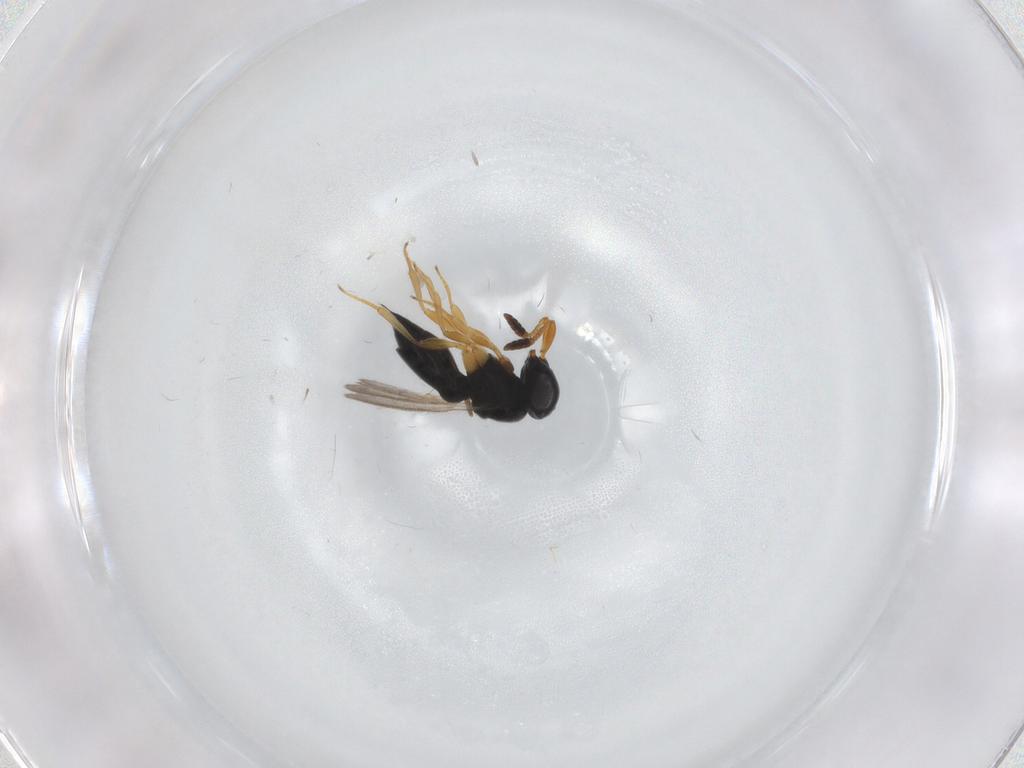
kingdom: Animalia
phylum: Arthropoda
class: Insecta
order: Hymenoptera
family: Scelionidae
